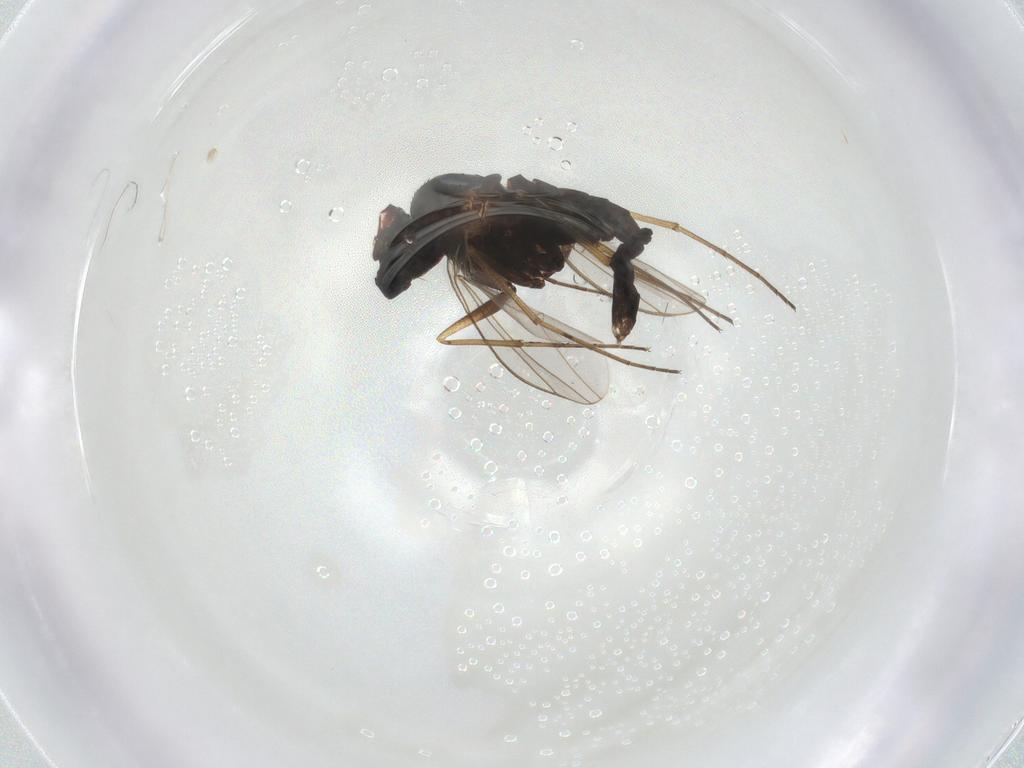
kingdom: Animalia
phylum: Arthropoda
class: Insecta
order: Diptera
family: Dolichopodidae
